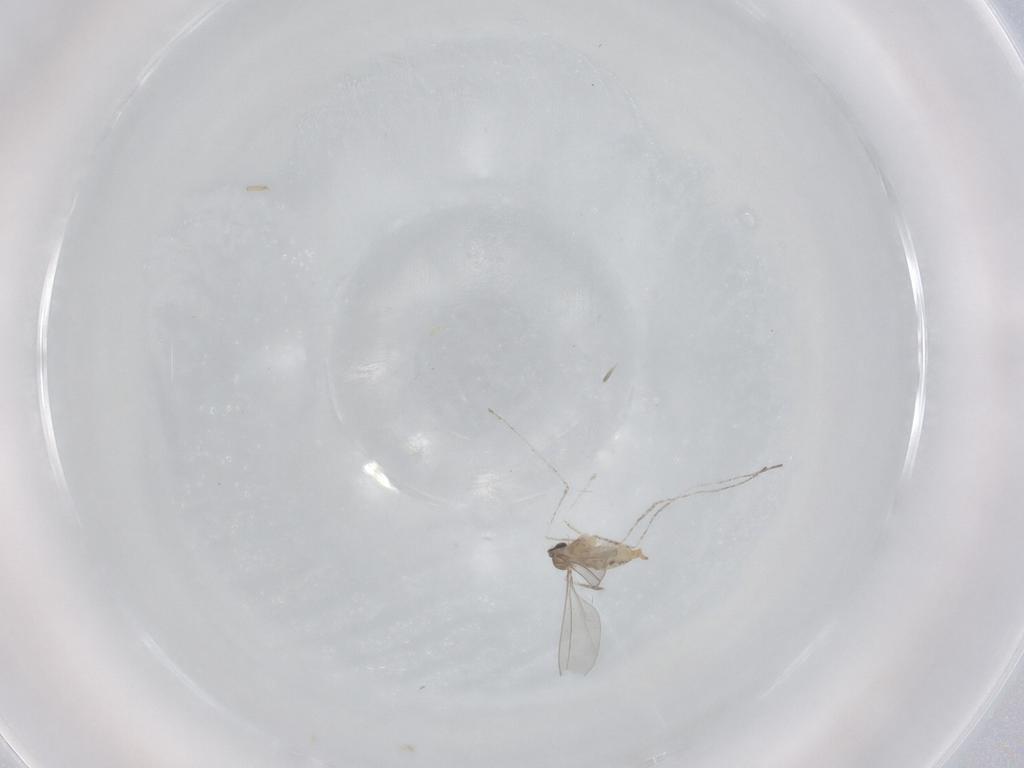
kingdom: Animalia
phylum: Arthropoda
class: Insecta
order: Diptera
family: Cecidomyiidae
